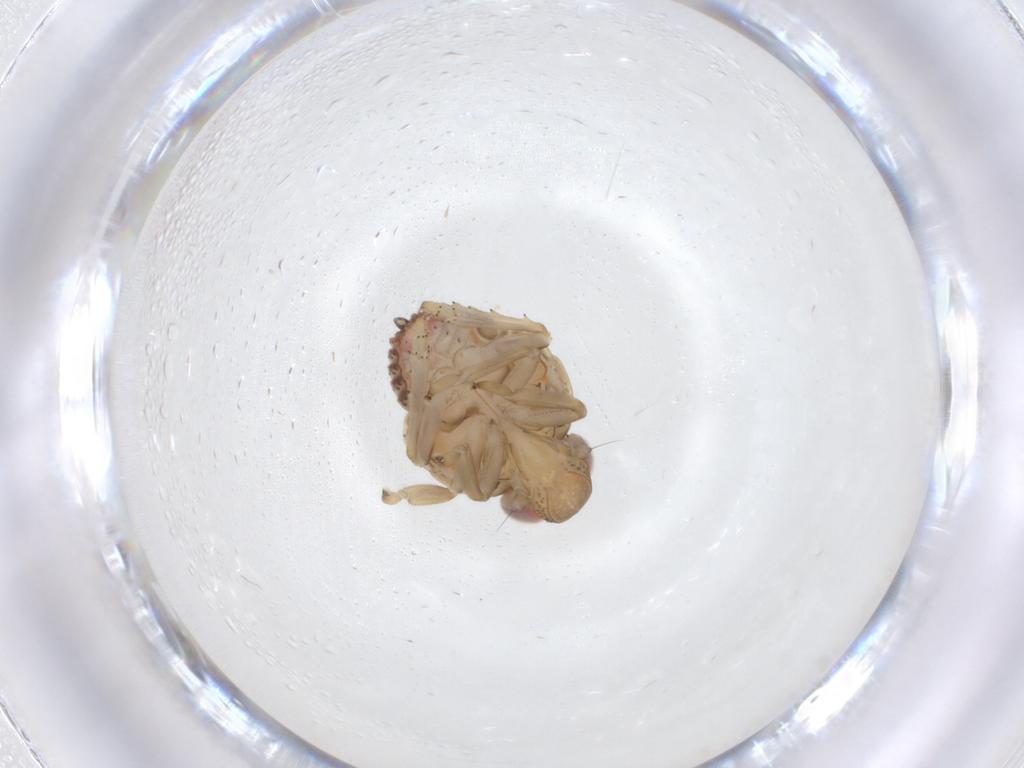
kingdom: Animalia
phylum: Arthropoda
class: Insecta
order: Hemiptera
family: Issidae
